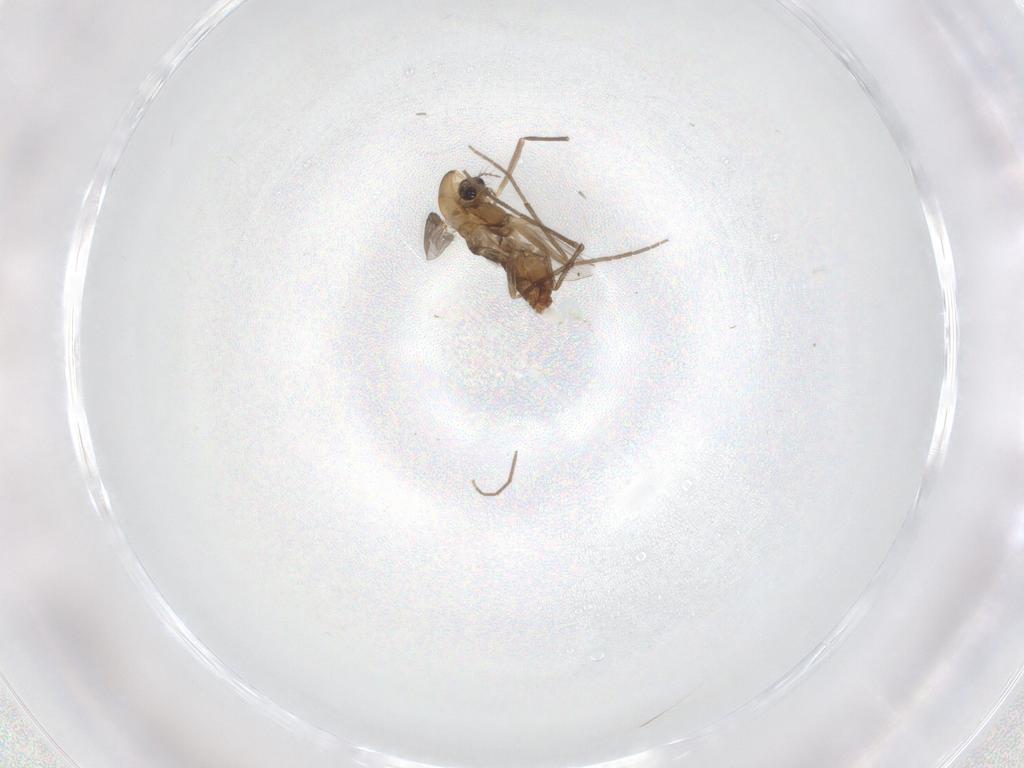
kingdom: Animalia
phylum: Arthropoda
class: Insecta
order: Diptera
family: Chironomidae
